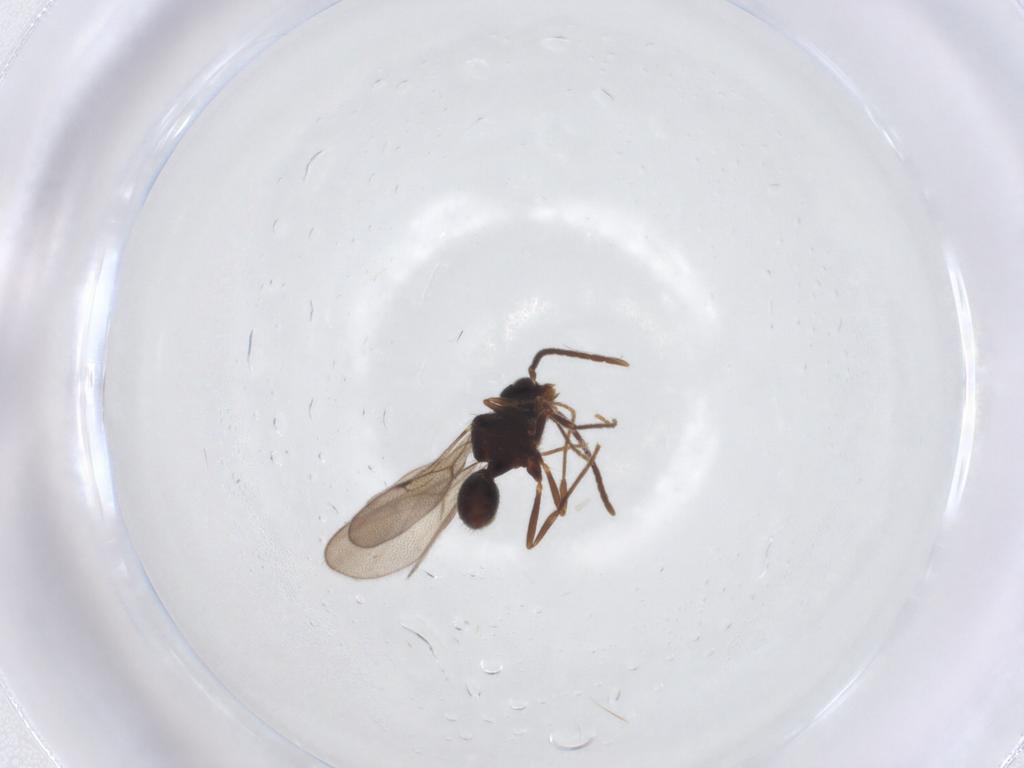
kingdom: Animalia
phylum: Arthropoda
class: Insecta
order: Hymenoptera
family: Formicidae
